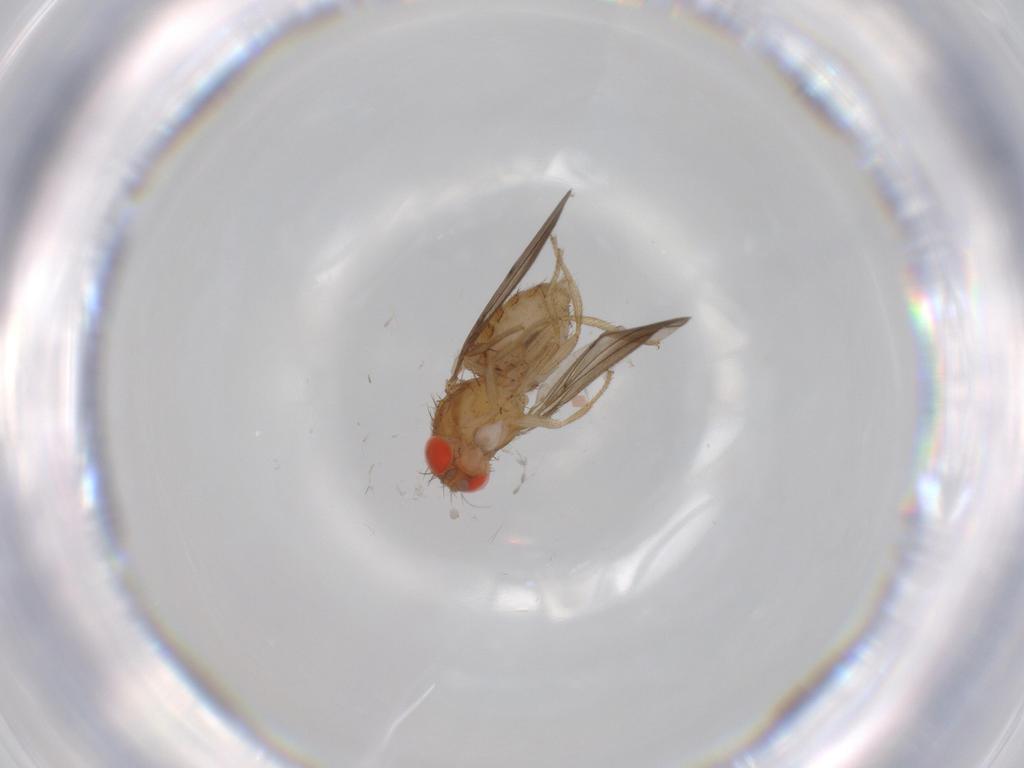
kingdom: Animalia
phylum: Arthropoda
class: Insecta
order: Diptera
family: Drosophilidae
